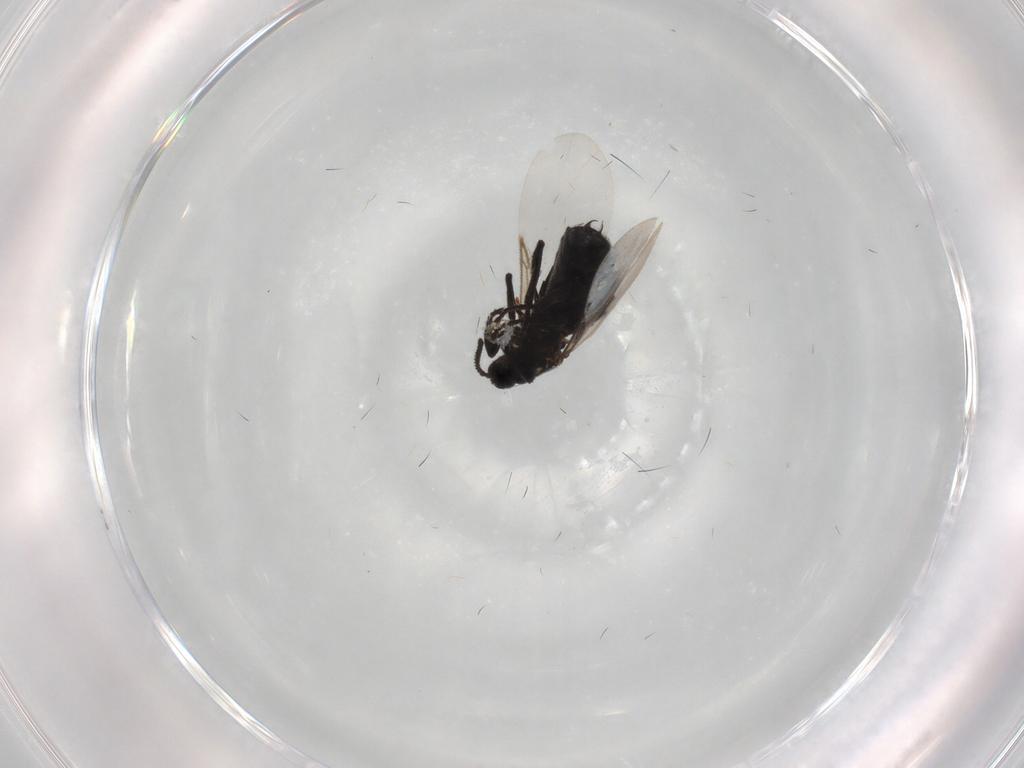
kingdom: Animalia
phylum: Arthropoda
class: Insecta
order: Diptera
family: Scatopsidae
